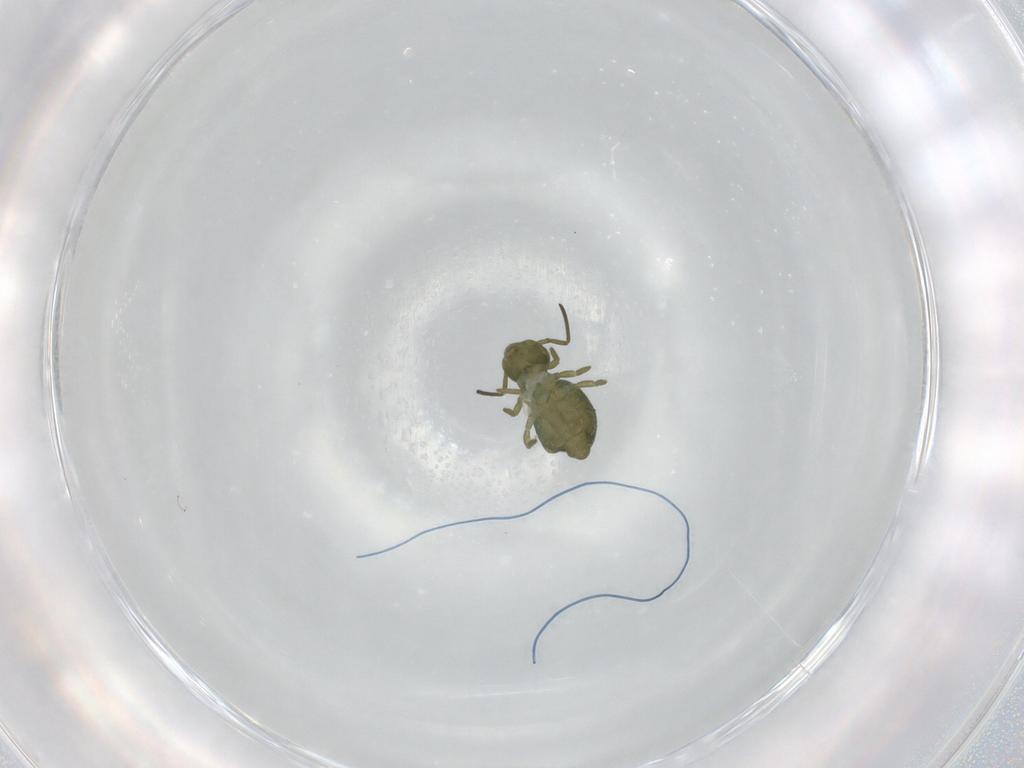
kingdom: Animalia
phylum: Arthropoda
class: Collembola
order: Symphypleona
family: Sminthuridae
